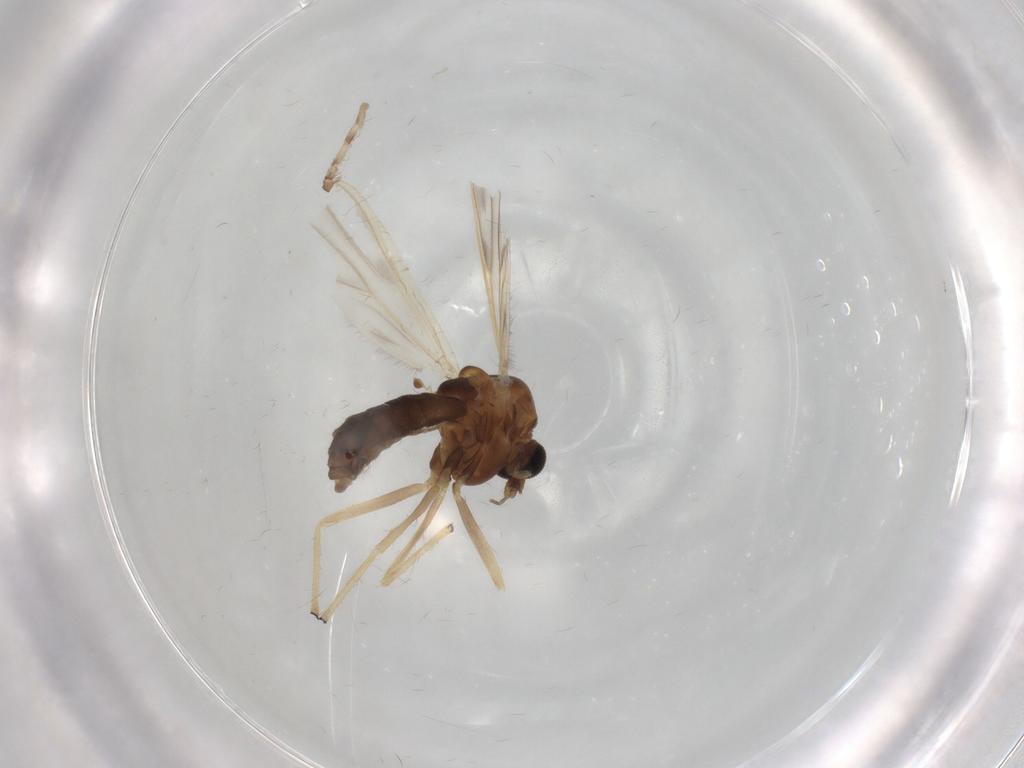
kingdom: Animalia
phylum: Arthropoda
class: Insecta
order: Diptera
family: Chironomidae
